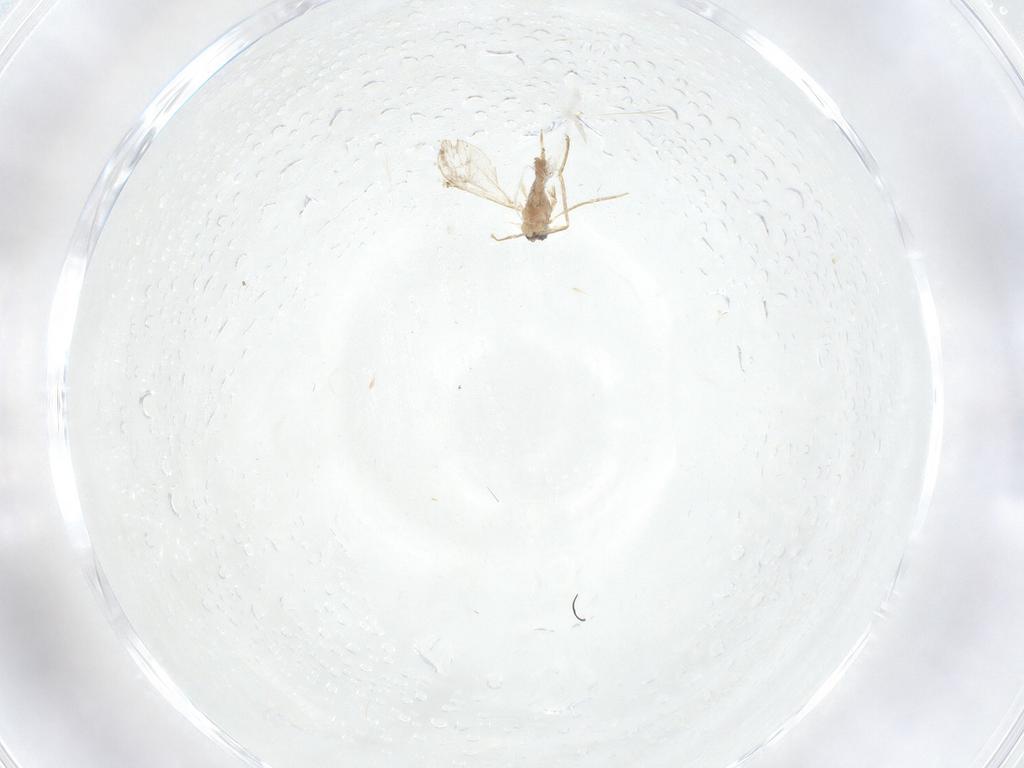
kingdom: Animalia
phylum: Arthropoda
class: Insecta
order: Diptera
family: Cecidomyiidae
